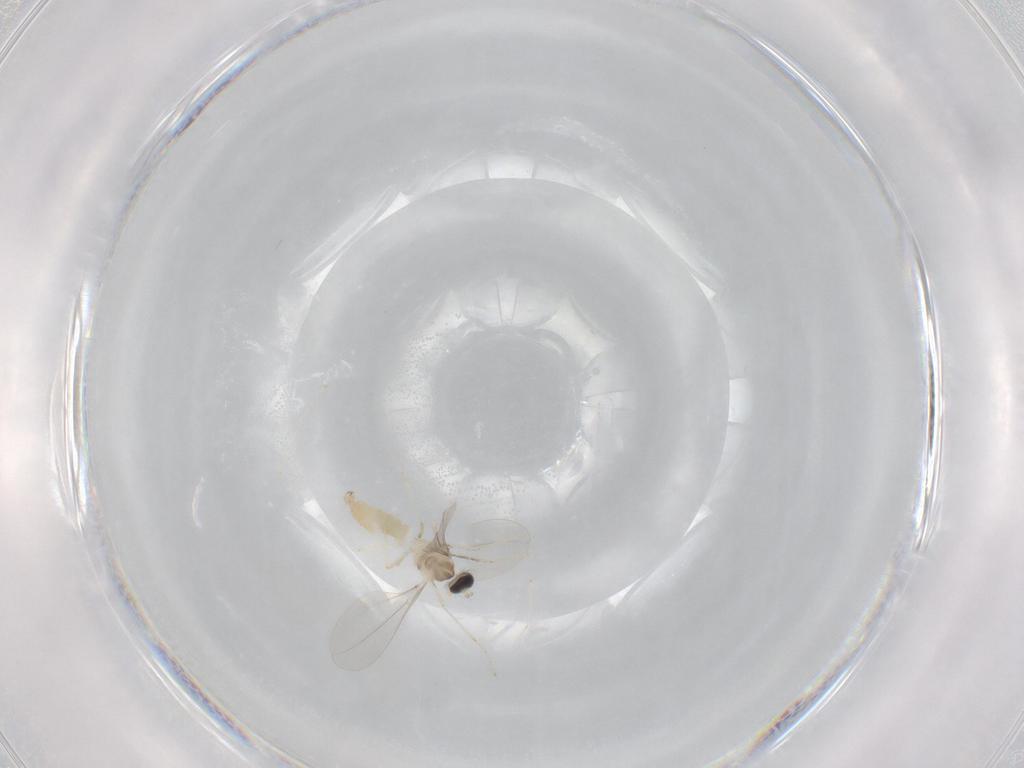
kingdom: Animalia
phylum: Arthropoda
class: Insecta
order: Diptera
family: Cecidomyiidae
